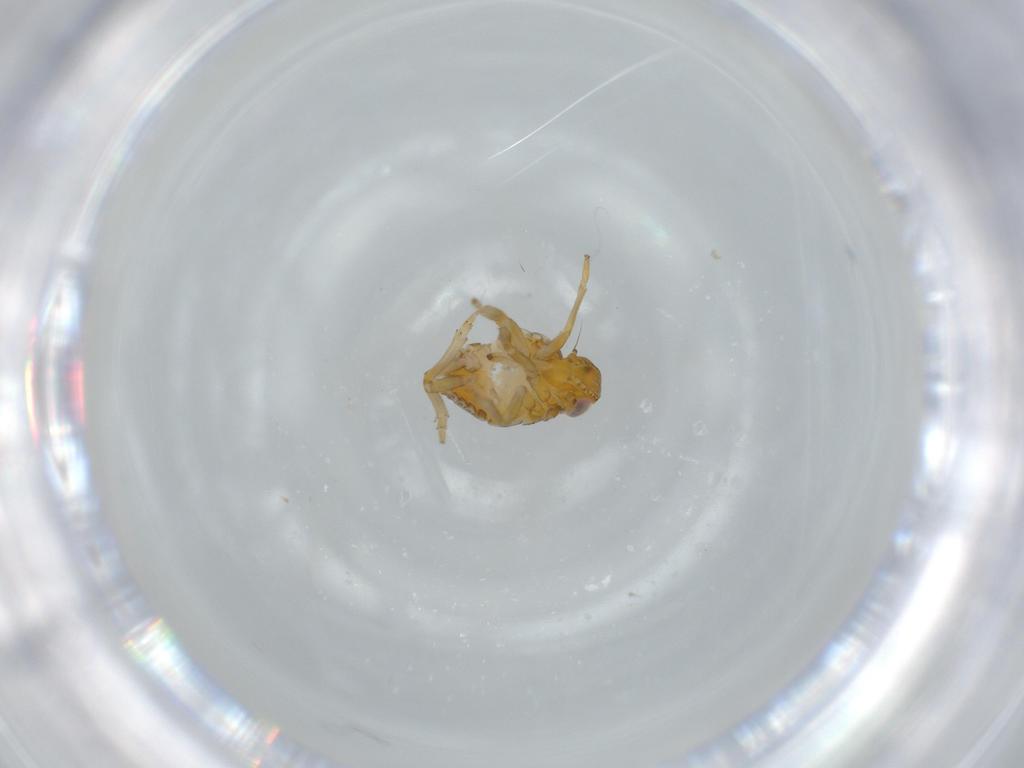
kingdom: Animalia
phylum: Arthropoda
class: Insecta
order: Hemiptera
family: Issidae
